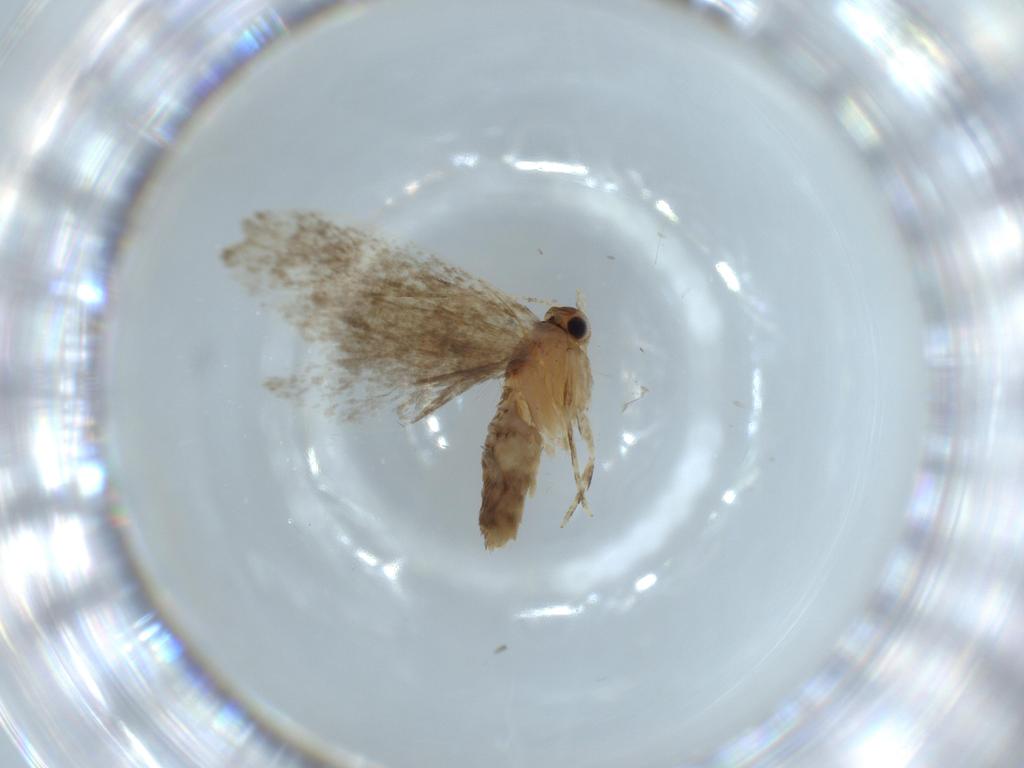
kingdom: Animalia
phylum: Arthropoda
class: Insecta
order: Lepidoptera
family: Tineidae
